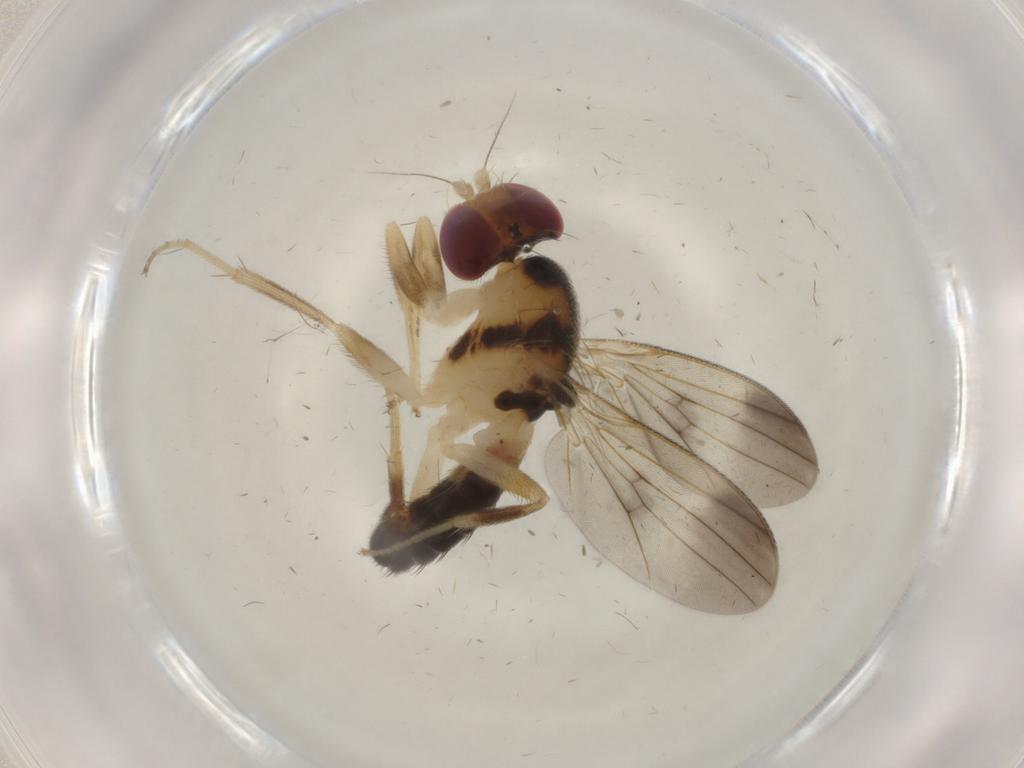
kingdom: Animalia
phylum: Arthropoda
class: Insecta
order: Diptera
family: Clusiidae
